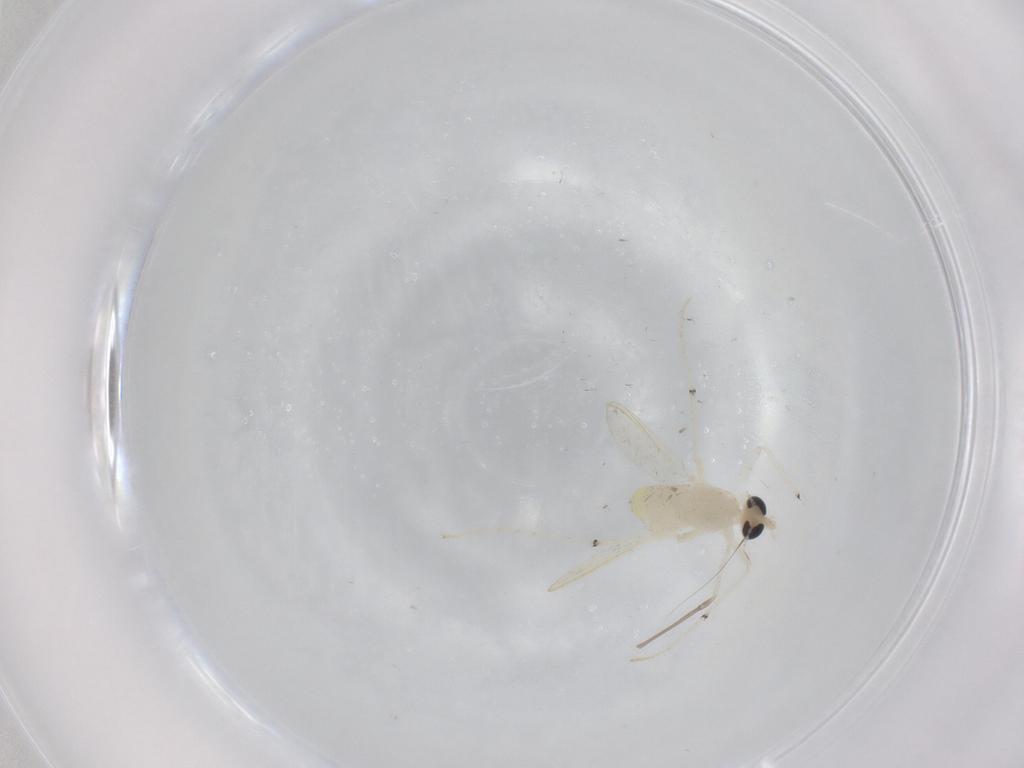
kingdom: Animalia
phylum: Arthropoda
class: Insecta
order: Diptera
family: Chironomidae
